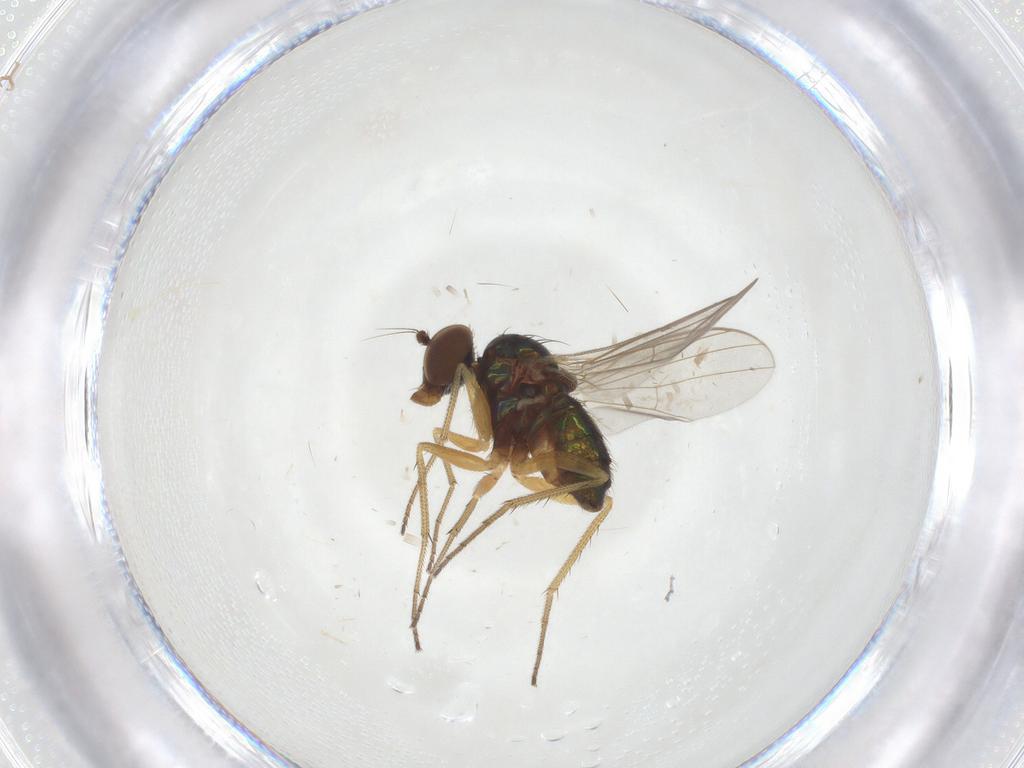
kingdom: Animalia
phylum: Arthropoda
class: Insecta
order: Diptera
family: Dolichopodidae
